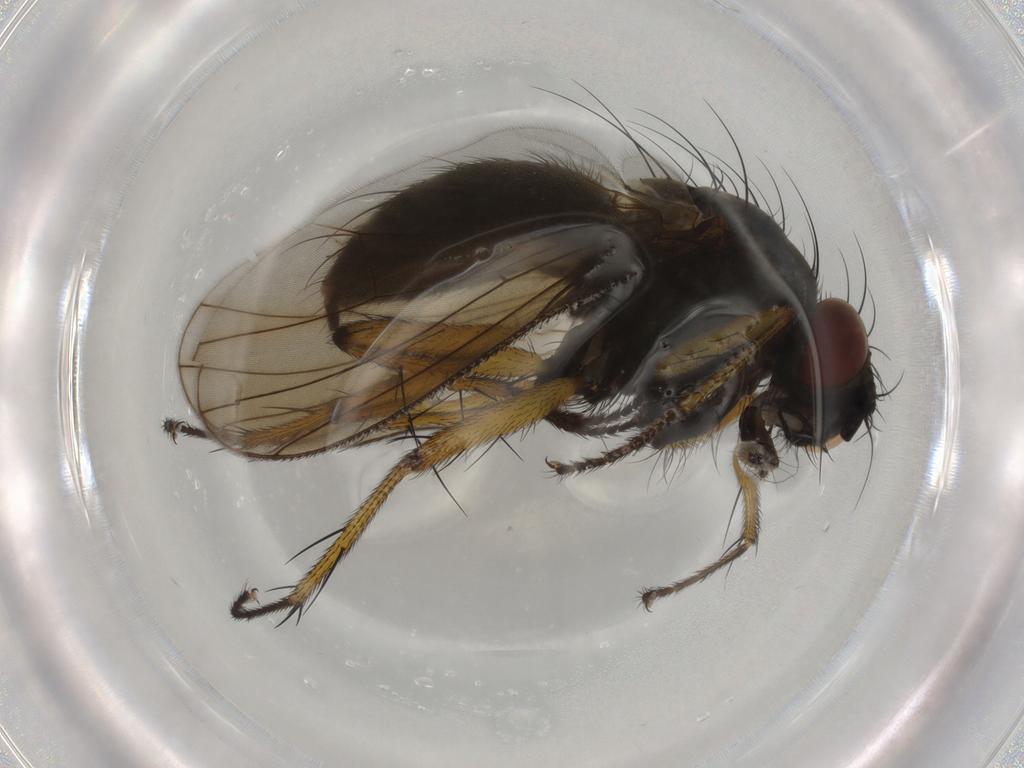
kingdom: Animalia
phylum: Arthropoda
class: Insecta
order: Diptera
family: Muscidae
